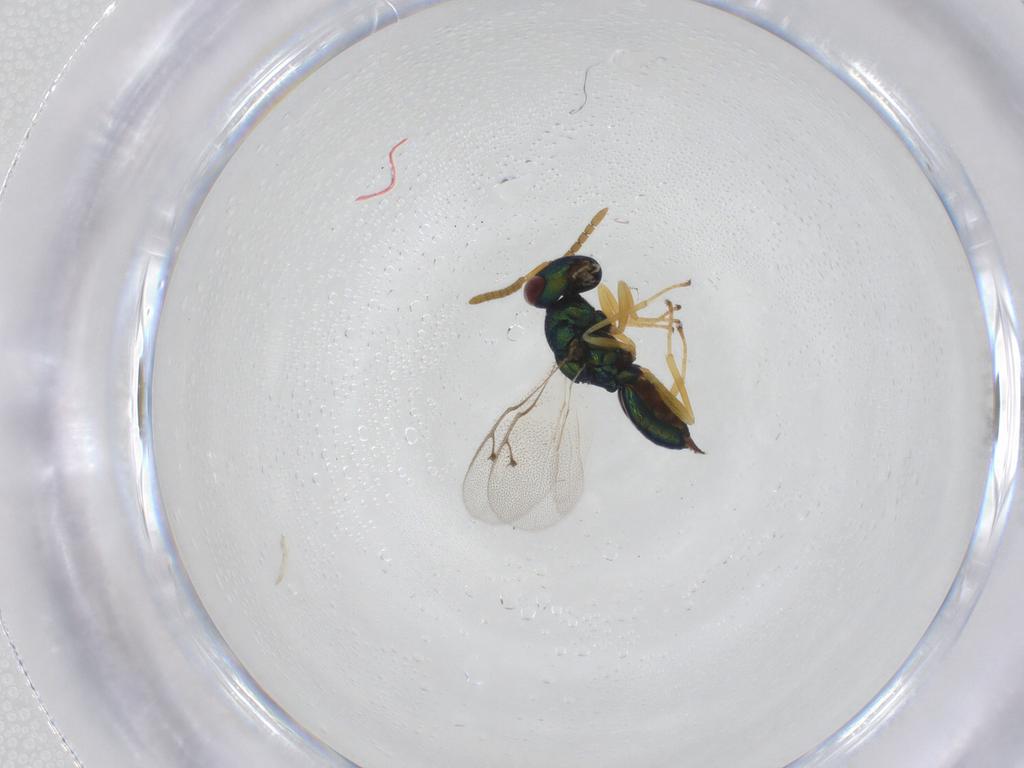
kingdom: Animalia
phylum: Arthropoda
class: Insecta
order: Hymenoptera
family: Pteromalidae
